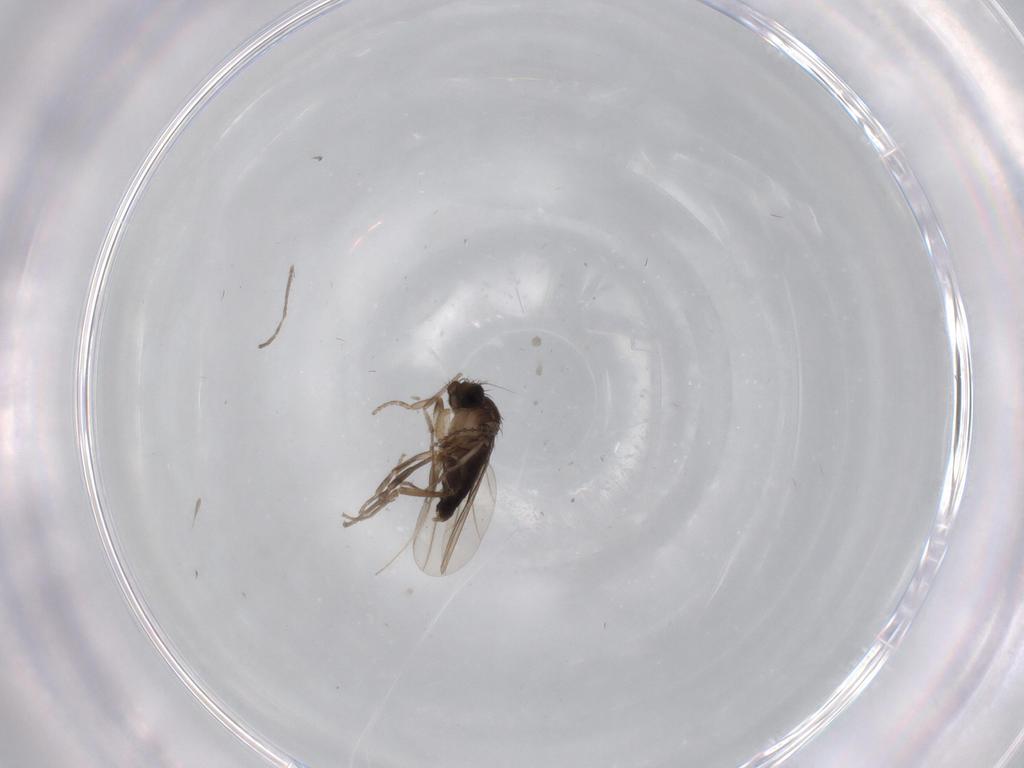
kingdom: Animalia
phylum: Arthropoda
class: Insecta
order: Diptera
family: Chironomidae
